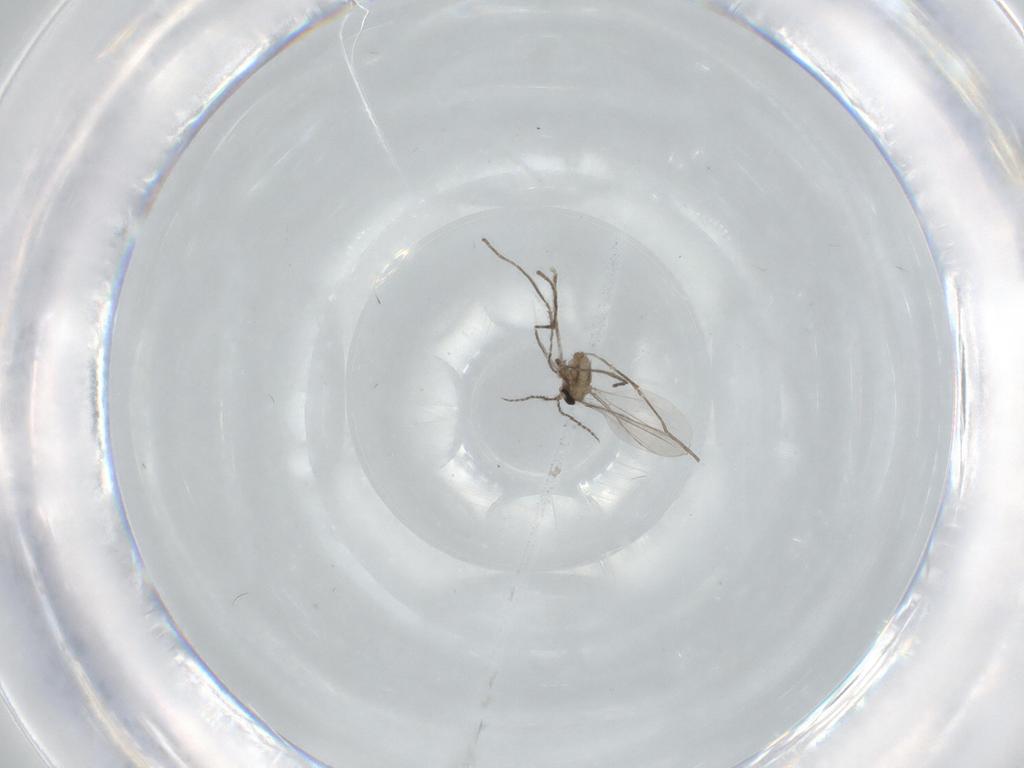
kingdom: Animalia
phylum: Arthropoda
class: Insecta
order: Diptera
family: Cecidomyiidae
